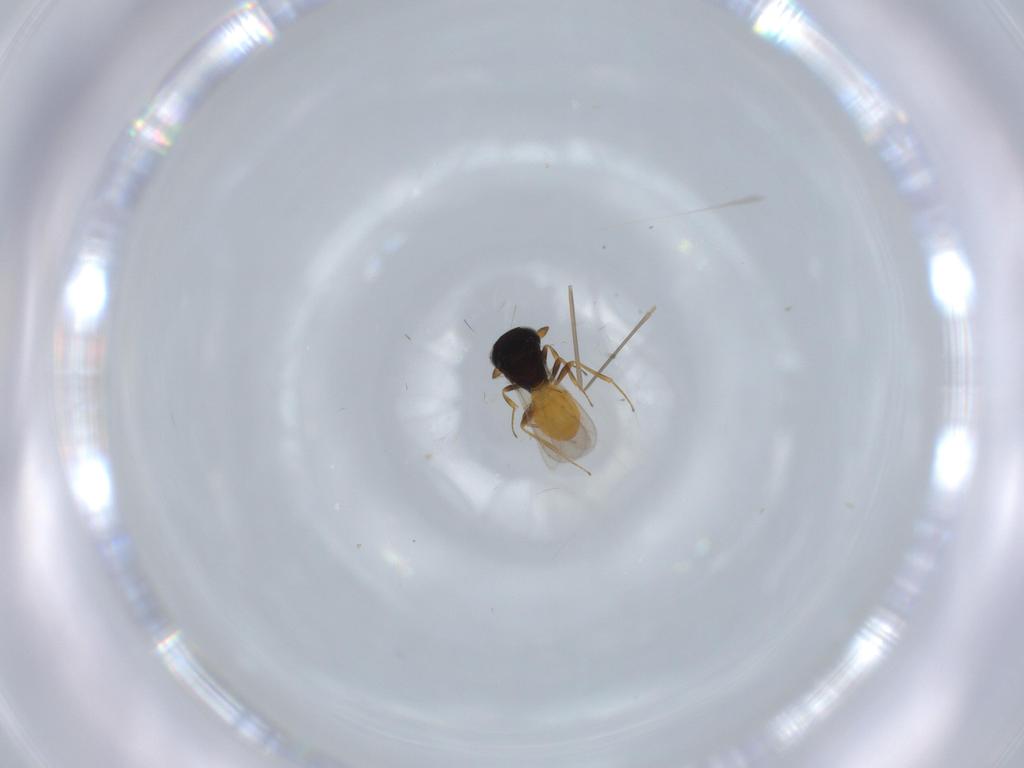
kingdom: Animalia
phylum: Arthropoda
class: Insecta
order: Hymenoptera
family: Scelionidae
